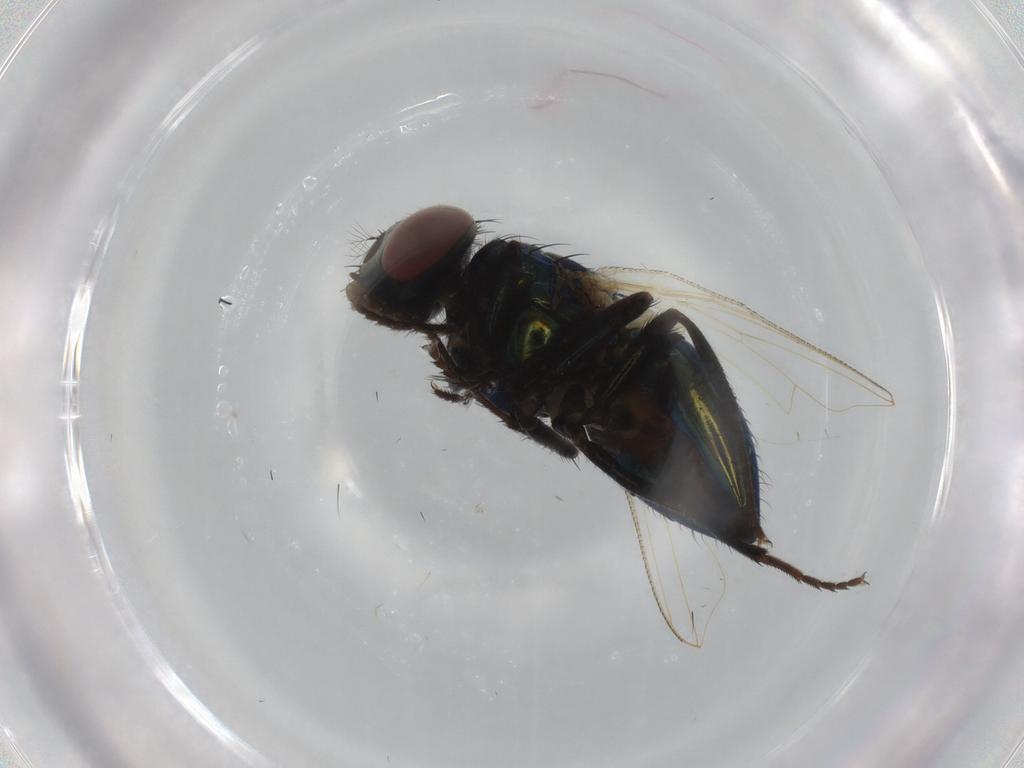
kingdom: Animalia
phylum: Arthropoda
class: Insecta
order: Diptera
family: Muscidae
